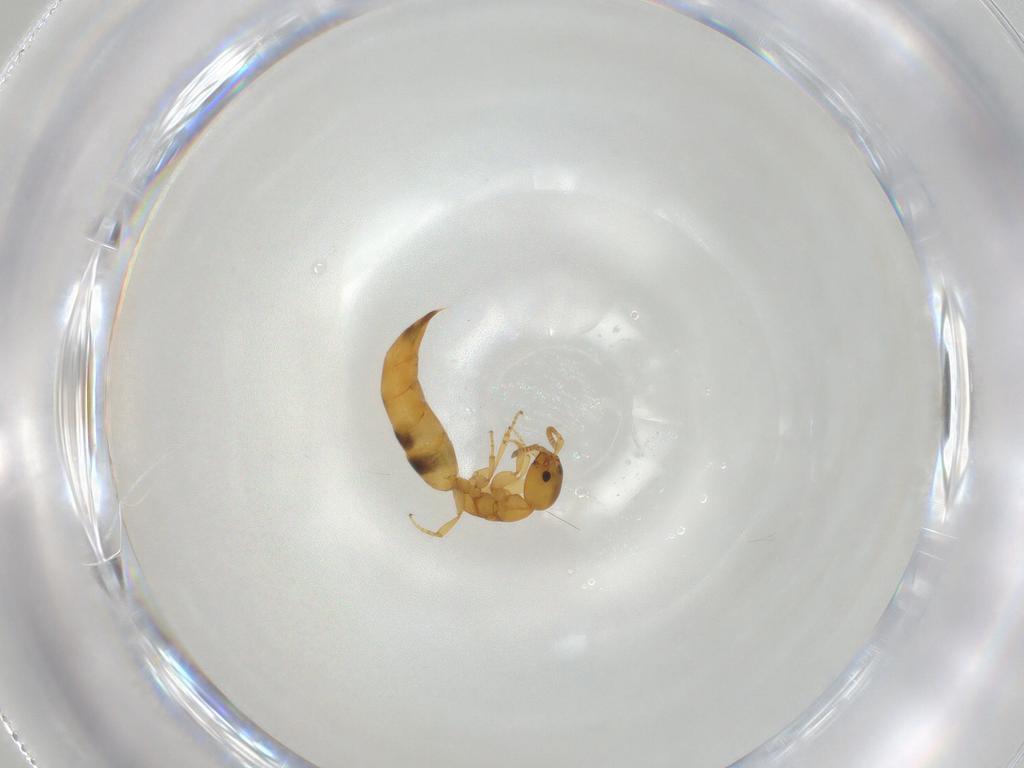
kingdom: Animalia
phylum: Arthropoda
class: Insecta
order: Hymenoptera
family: Bethylidae
